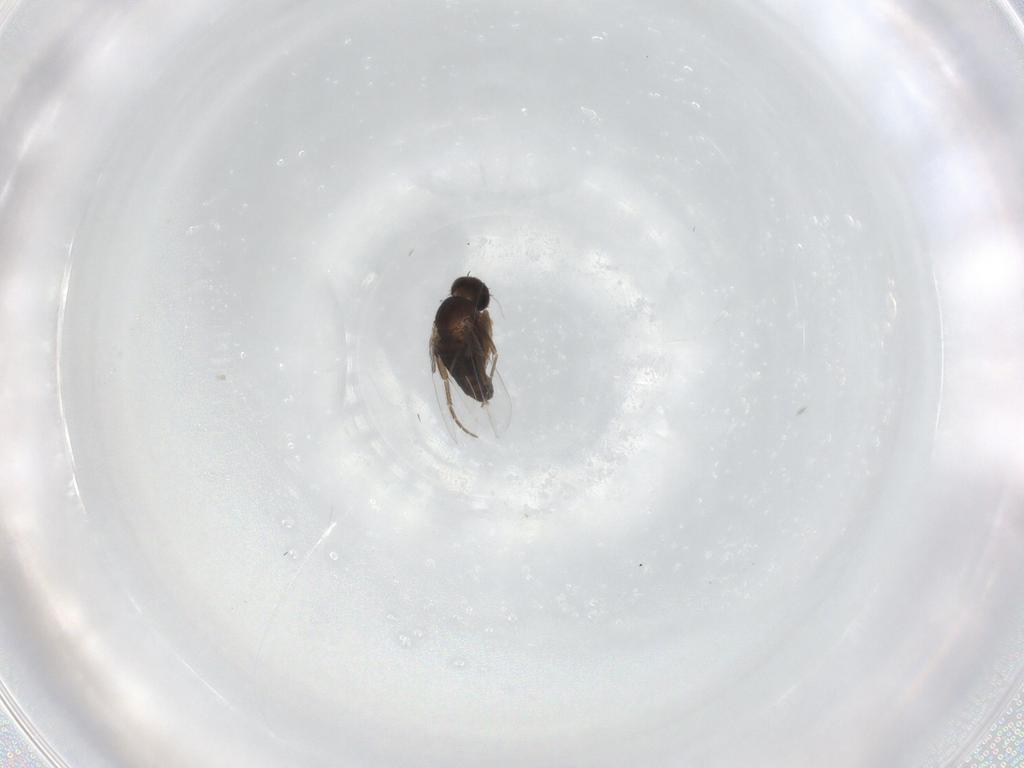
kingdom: Animalia
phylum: Arthropoda
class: Insecta
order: Diptera
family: Phoridae
